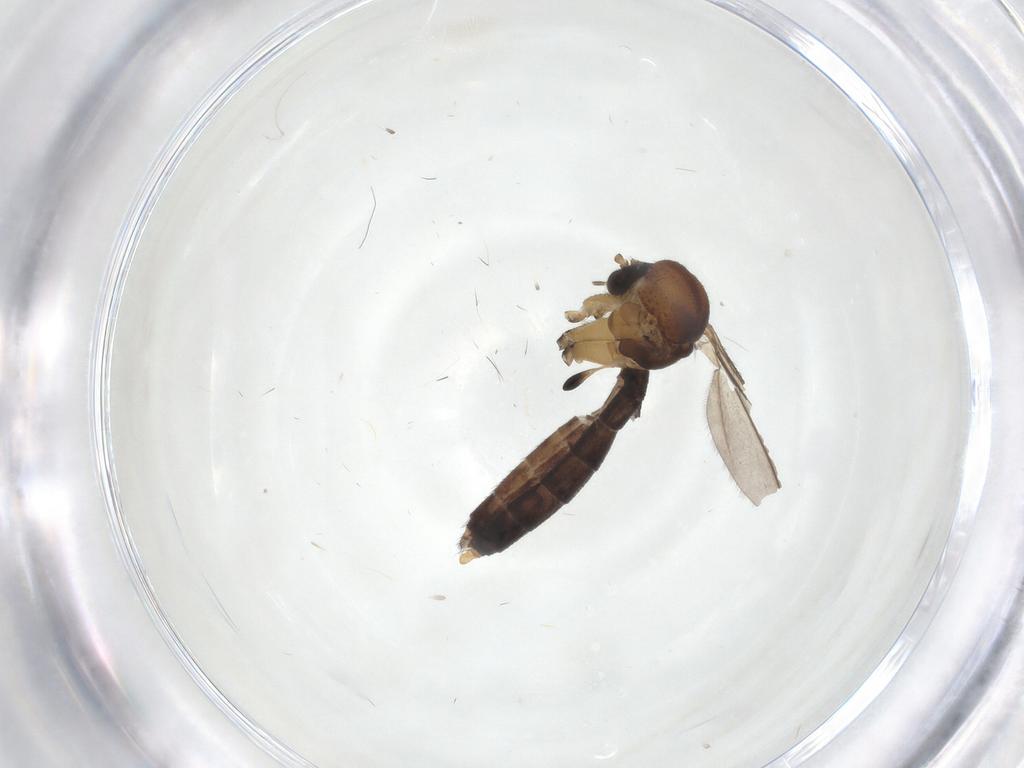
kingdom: Animalia
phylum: Arthropoda
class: Insecta
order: Diptera
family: Mycetophilidae
